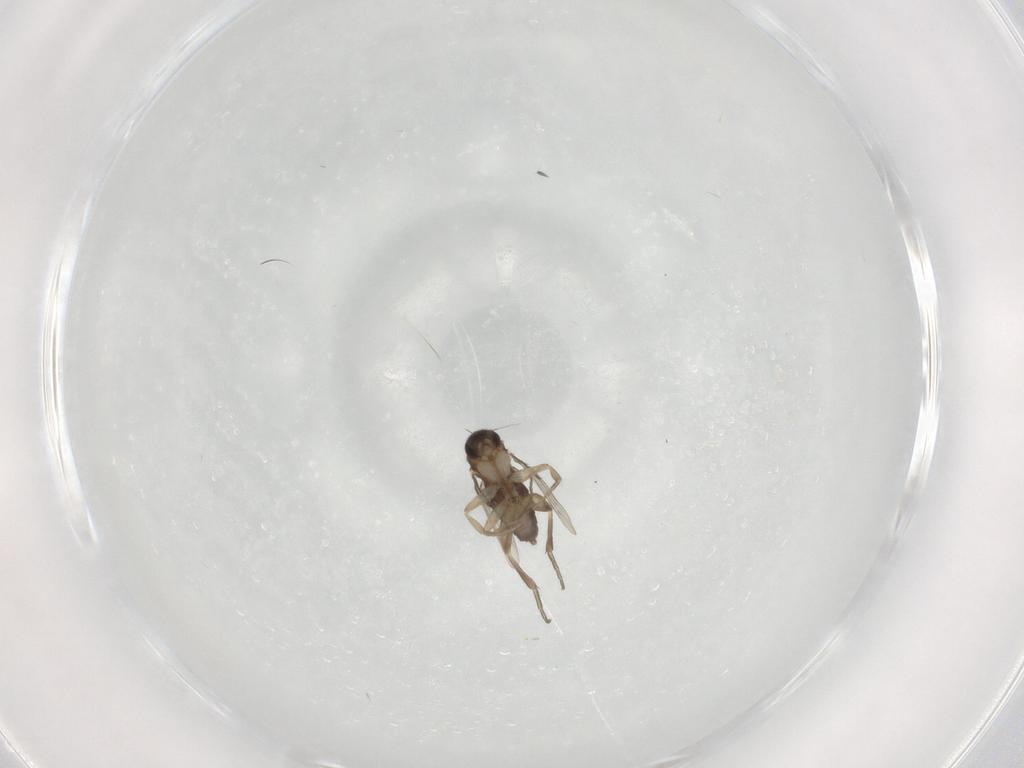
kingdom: Animalia
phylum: Arthropoda
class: Insecta
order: Diptera
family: Phoridae
